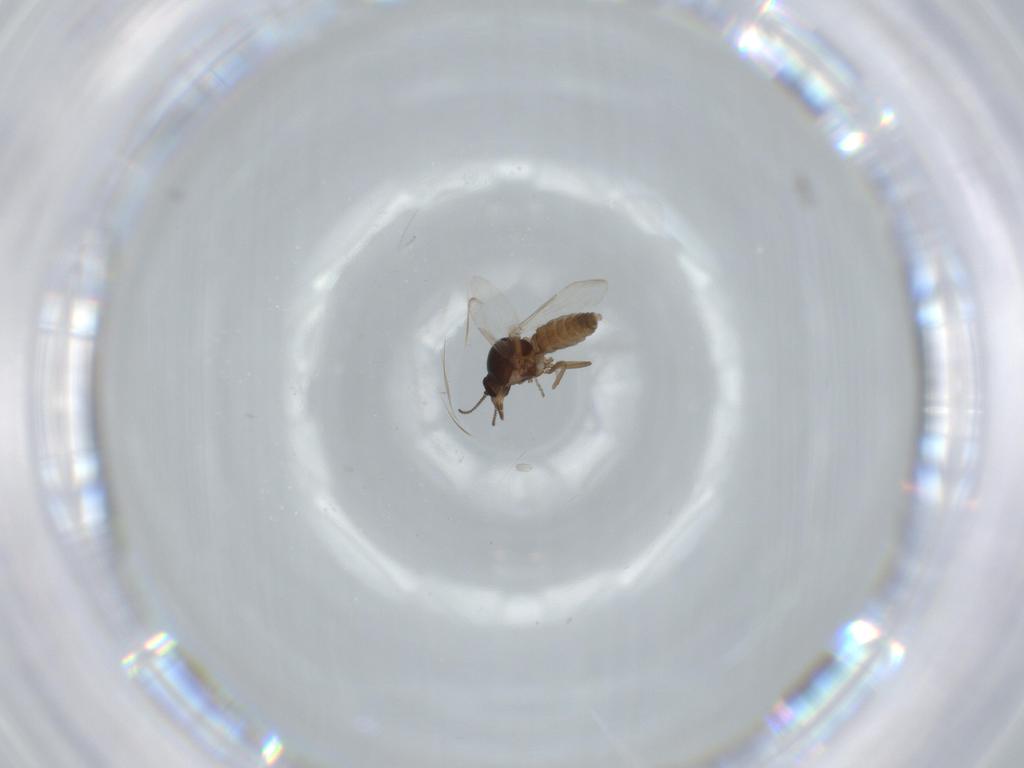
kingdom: Animalia
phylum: Arthropoda
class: Insecta
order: Diptera
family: Ceratopogonidae
